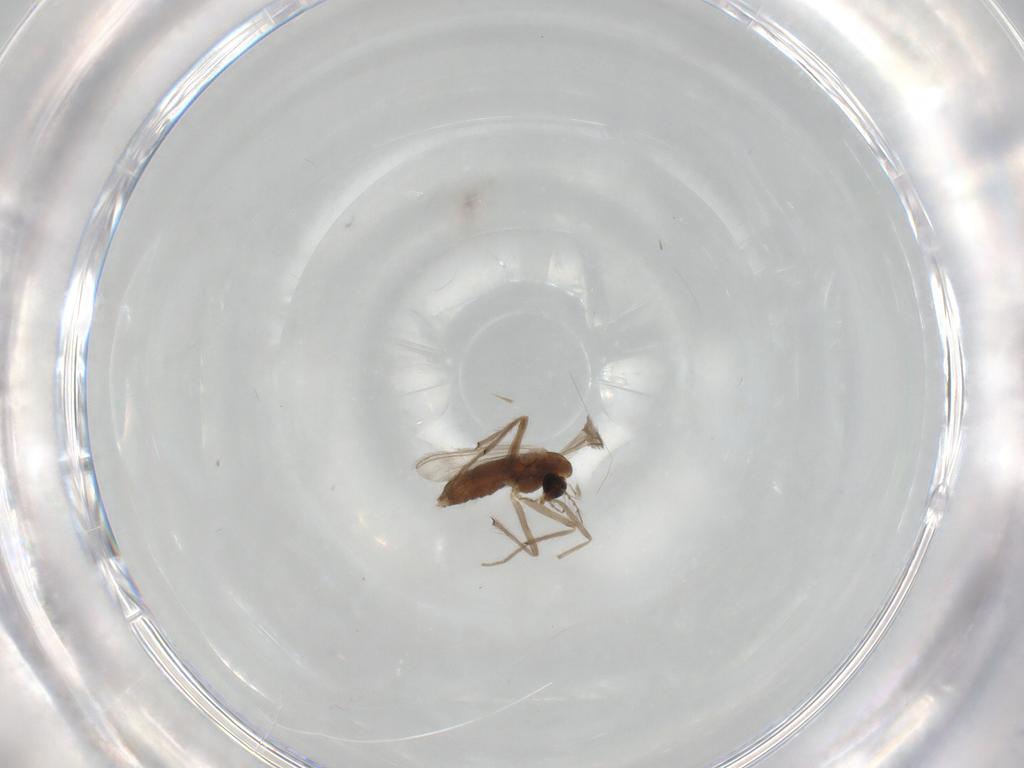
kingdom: Animalia
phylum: Arthropoda
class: Insecta
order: Diptera
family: Chironomidae
